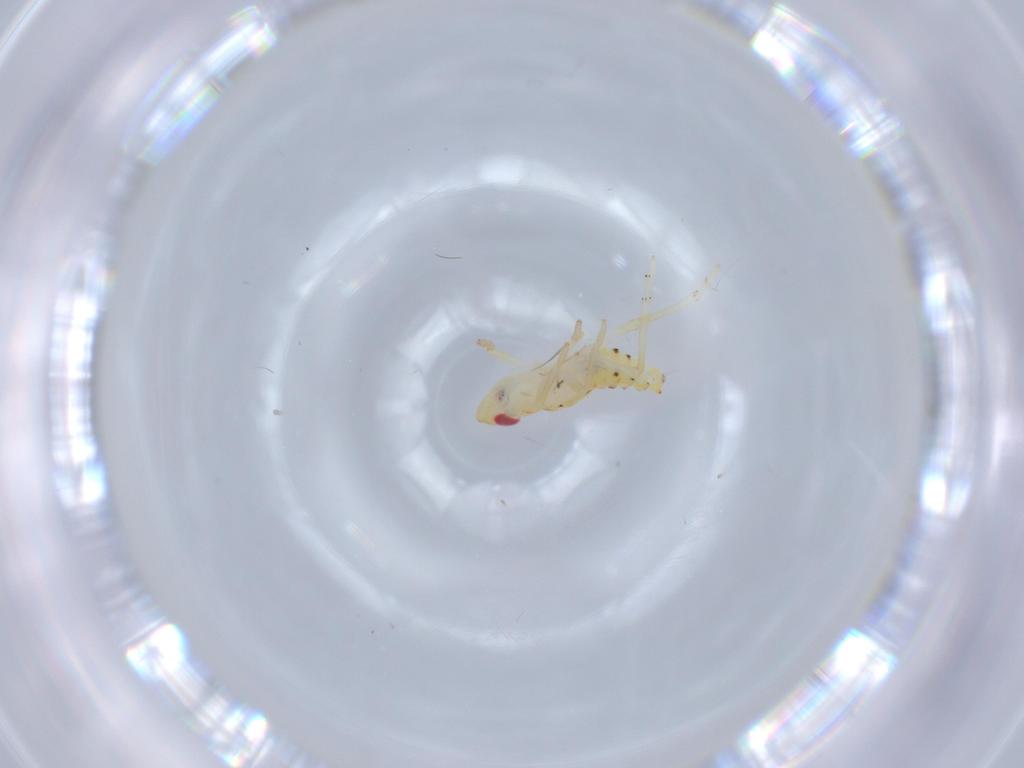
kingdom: Animalia
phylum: Arthropoda
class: Insecta
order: Hemiptera
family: Tropiduchidae
